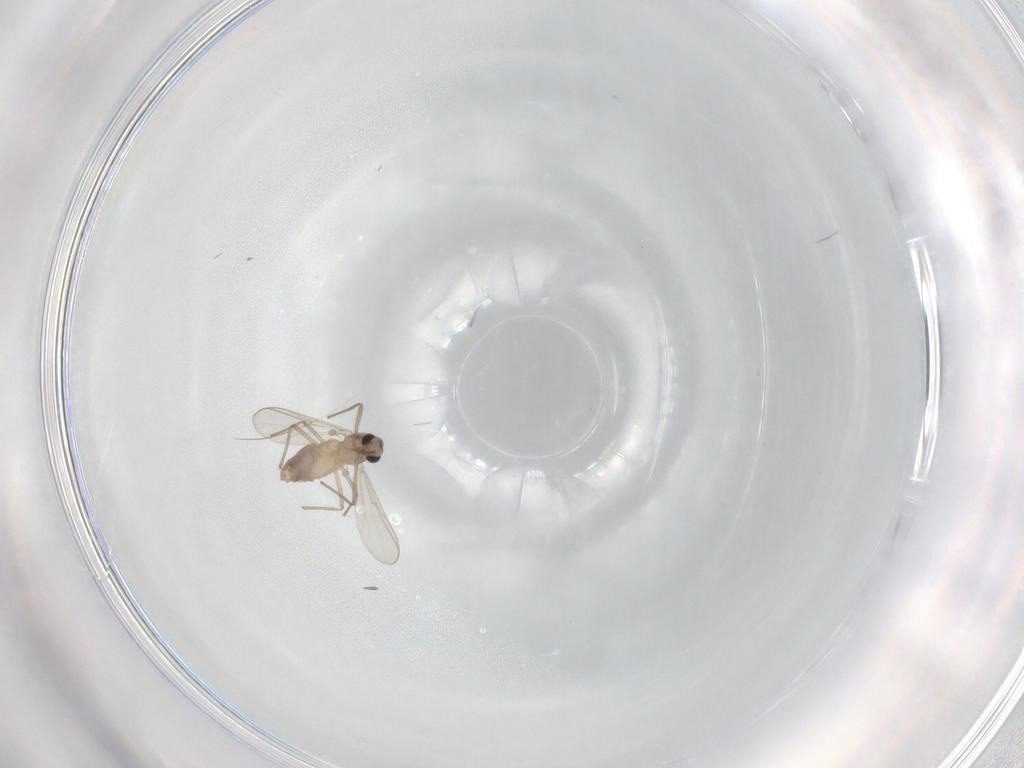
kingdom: Animalia
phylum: Arthropoda
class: Insecta
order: Diptera
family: Chironomidae
